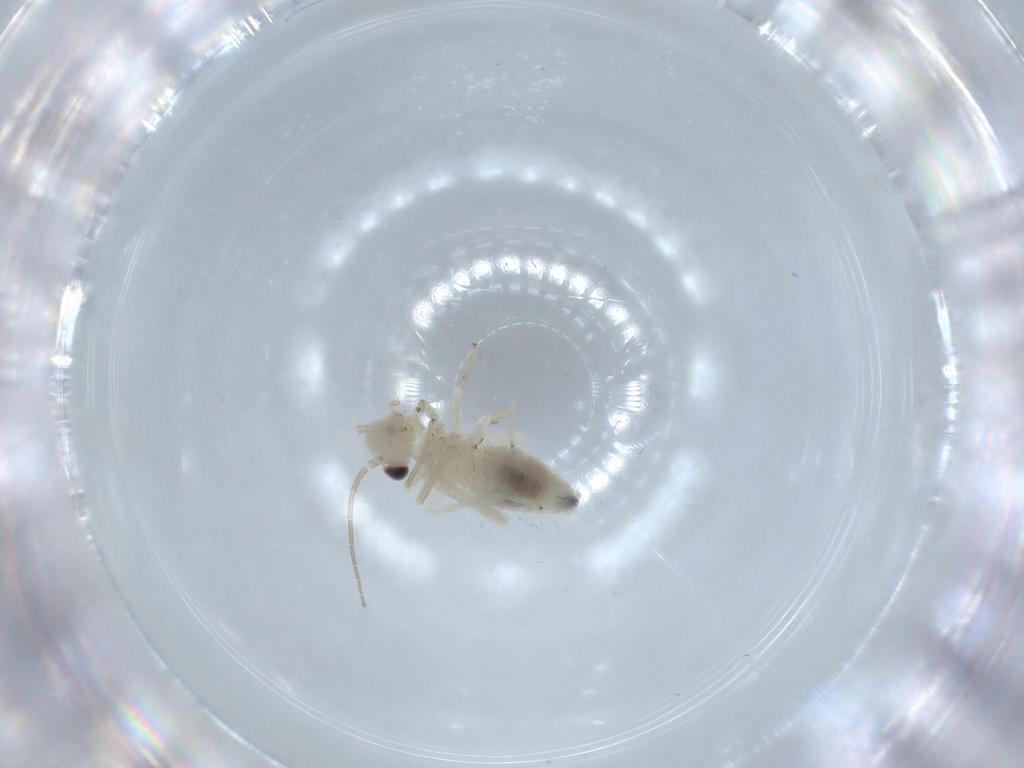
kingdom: Animalia
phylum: Arthropoda
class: Insecta
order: Psocodea
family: Caeciliusidae
